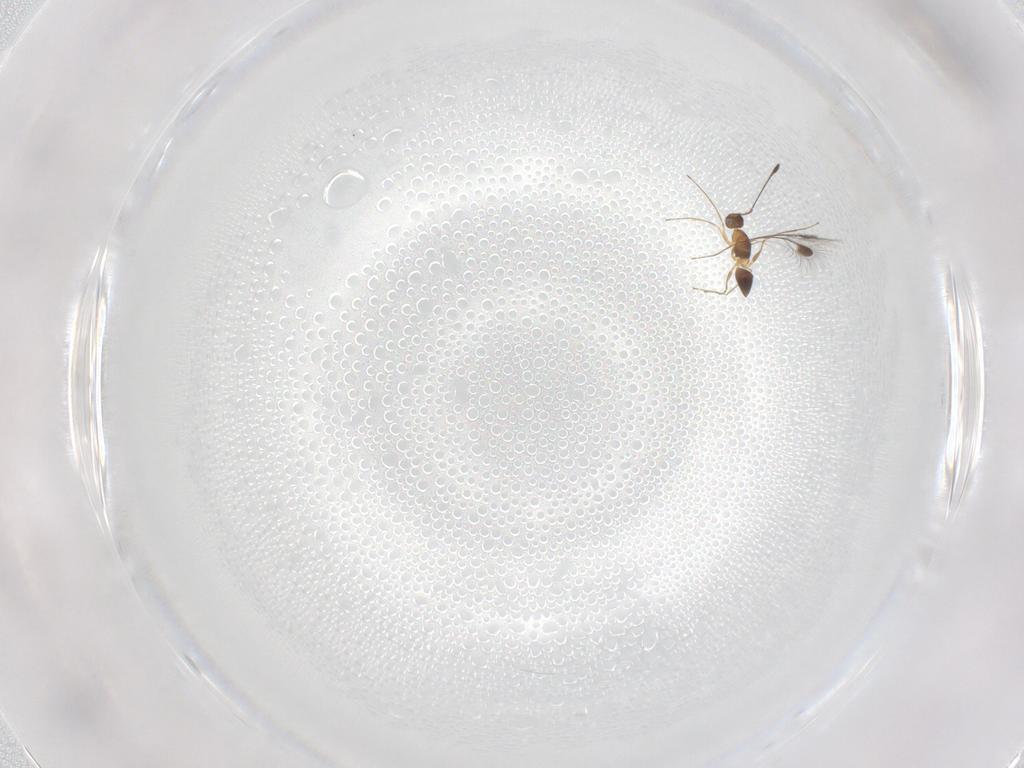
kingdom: Animalia
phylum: Arthropoda
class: Insecta
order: Hymenoptera
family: Mymaridae
